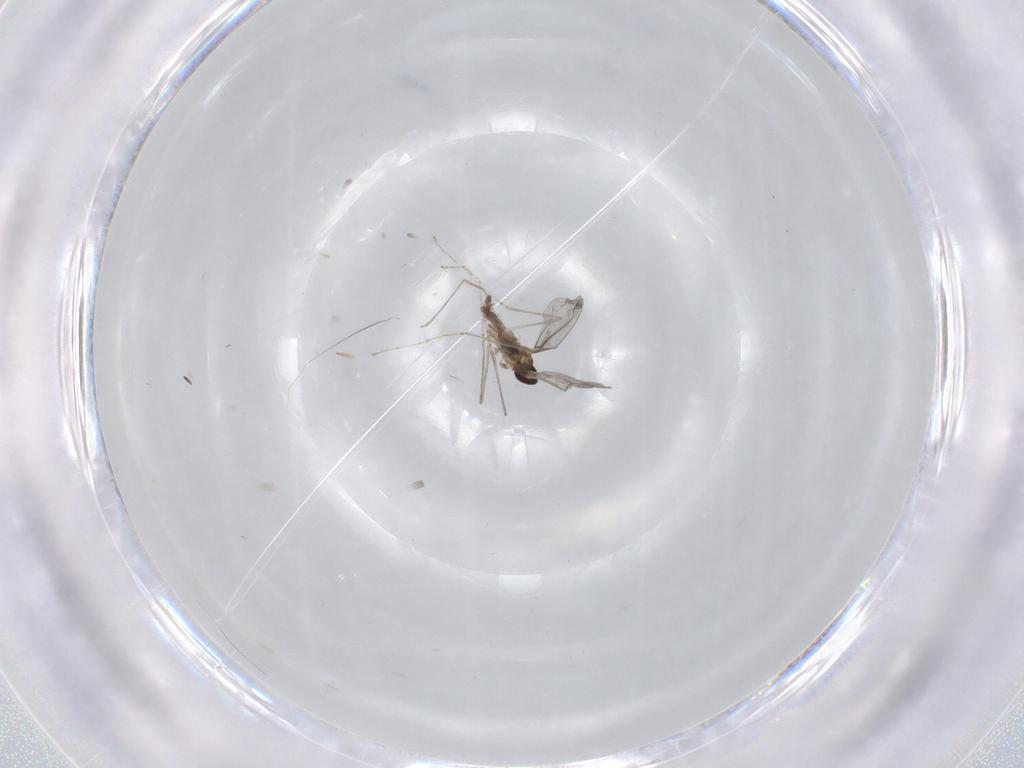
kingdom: Animalia
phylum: Arthropoda
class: Insecta
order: Diptera
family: Cecidomyiidae
